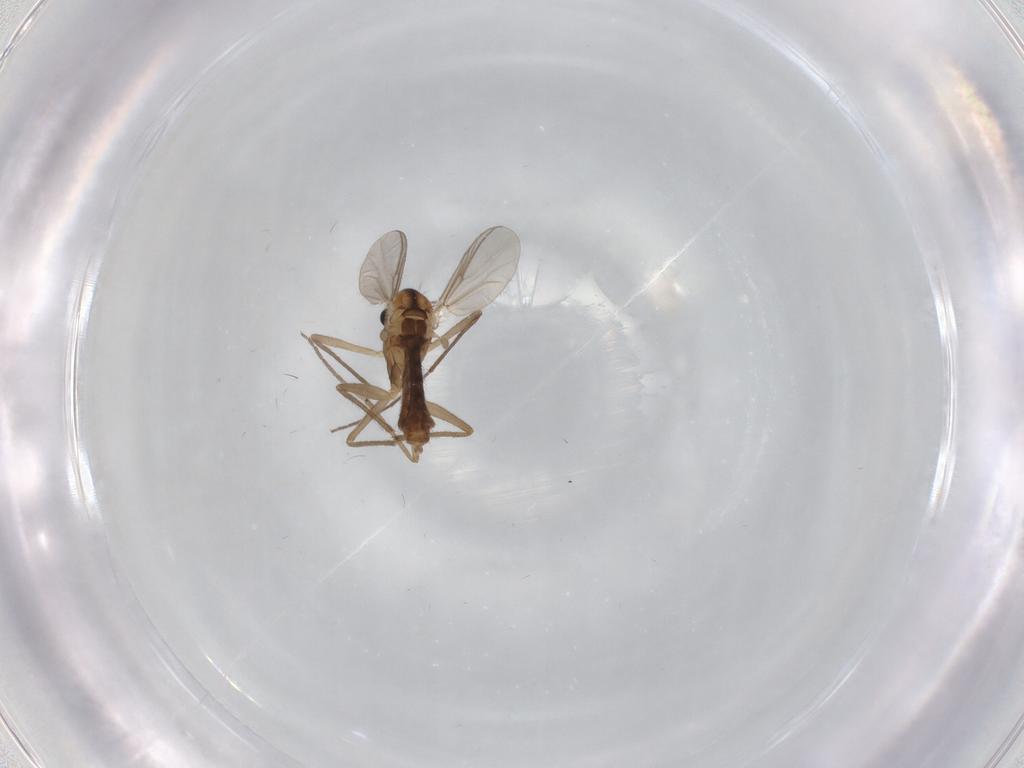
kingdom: Animalia
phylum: Arthropoda
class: Insecta
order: Diptera
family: Chironomidae
